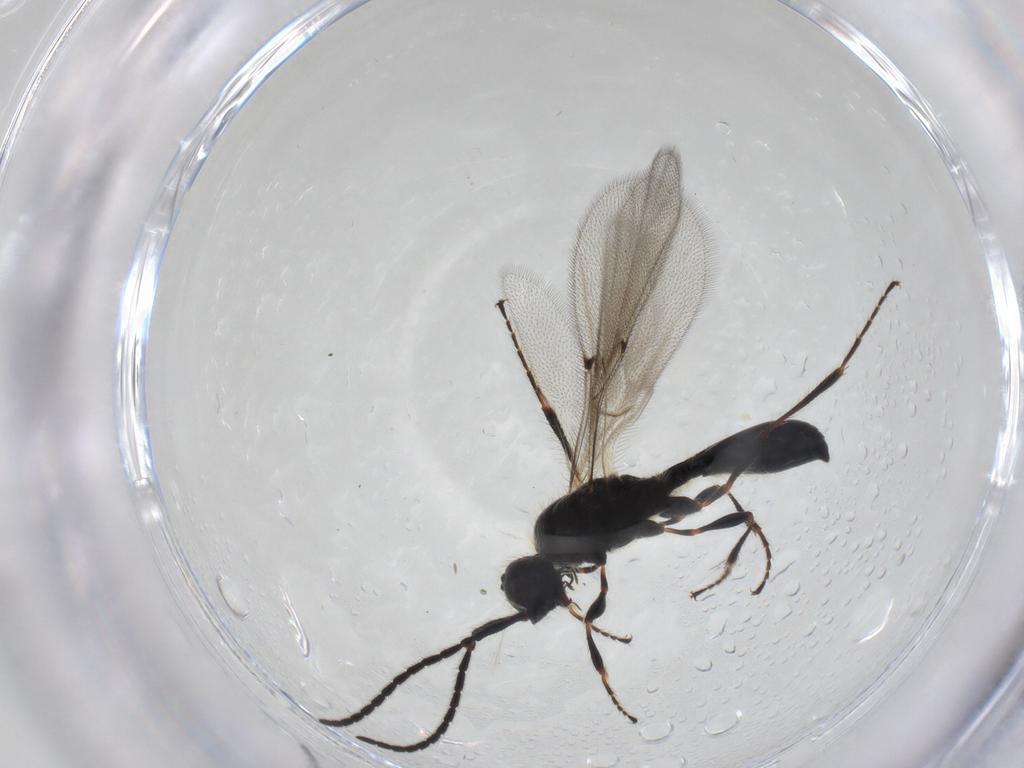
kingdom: Animalia
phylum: Arthropoda
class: Insecta
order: Hymenoptera
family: Diapriidae
